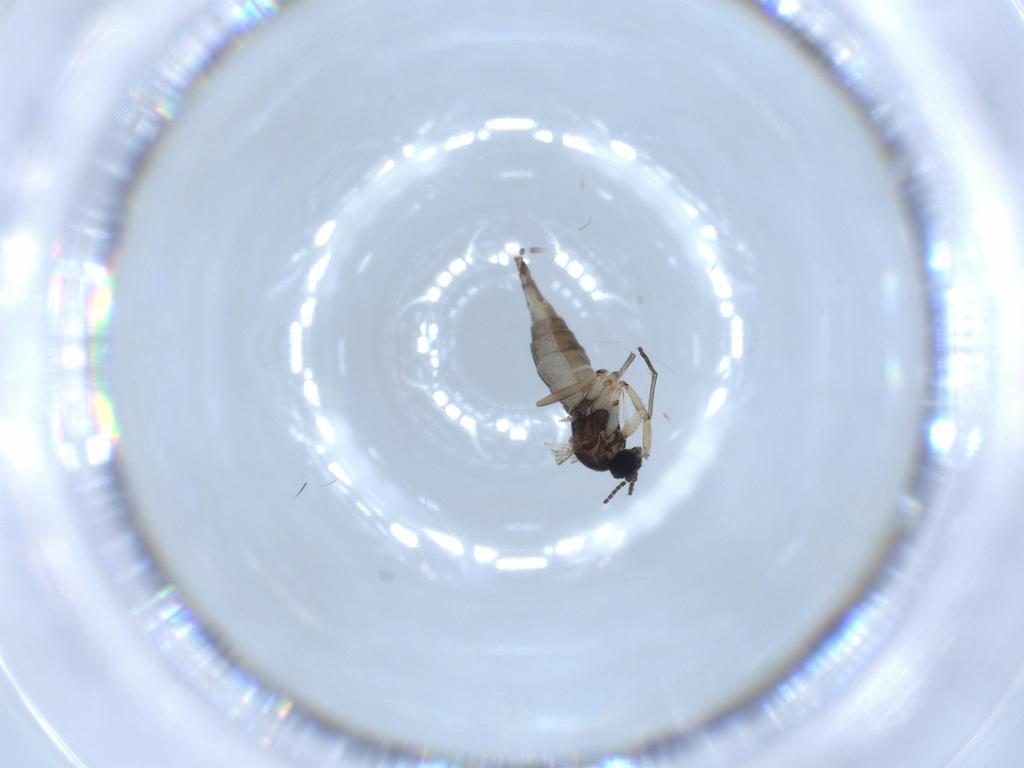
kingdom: Animalia
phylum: Arthropoda
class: Insecta
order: Diptera
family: Sciaridae
